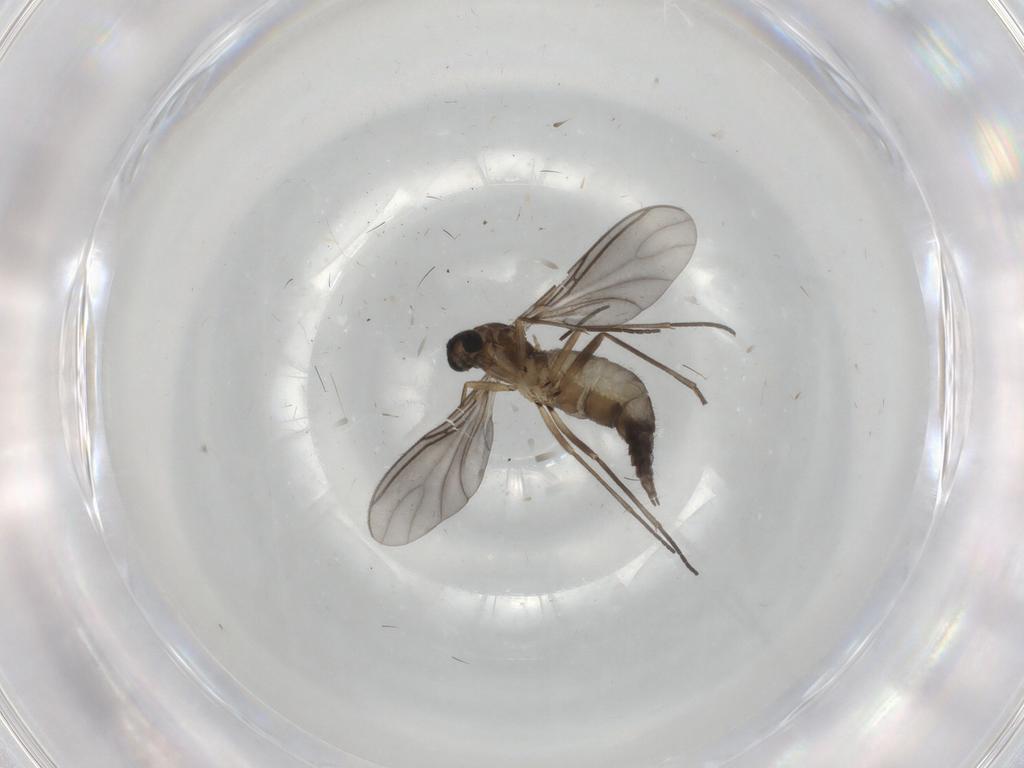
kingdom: Animalia
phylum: Arthropoda
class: Insecta
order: Diptera
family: Sciaridae
